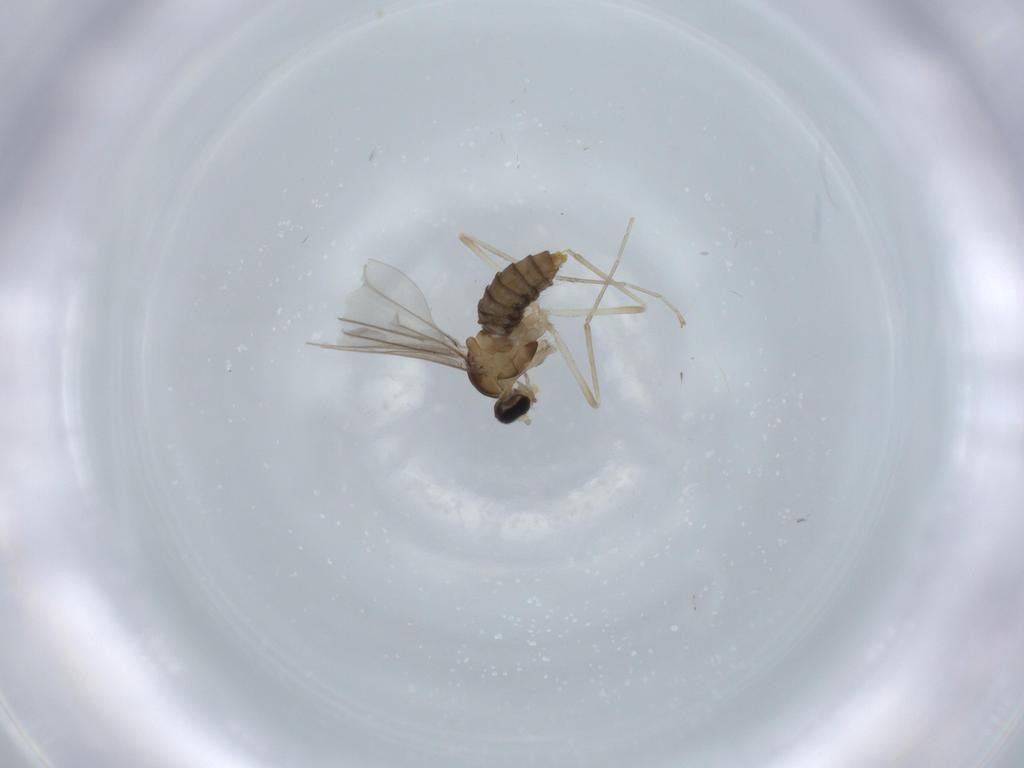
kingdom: Animalia
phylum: Arthropoda
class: Insecta
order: Diptera
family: Cecidomyiidae
